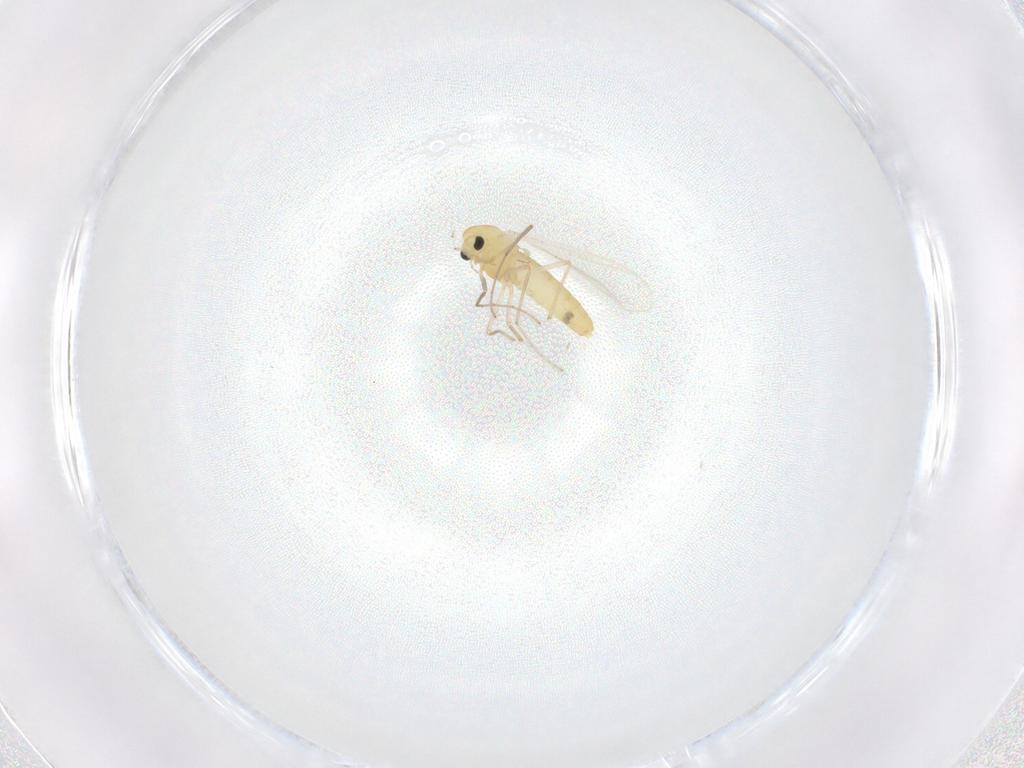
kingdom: Animalia
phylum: Arthropoda
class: Insecta
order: Diptera
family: Chironomidae
